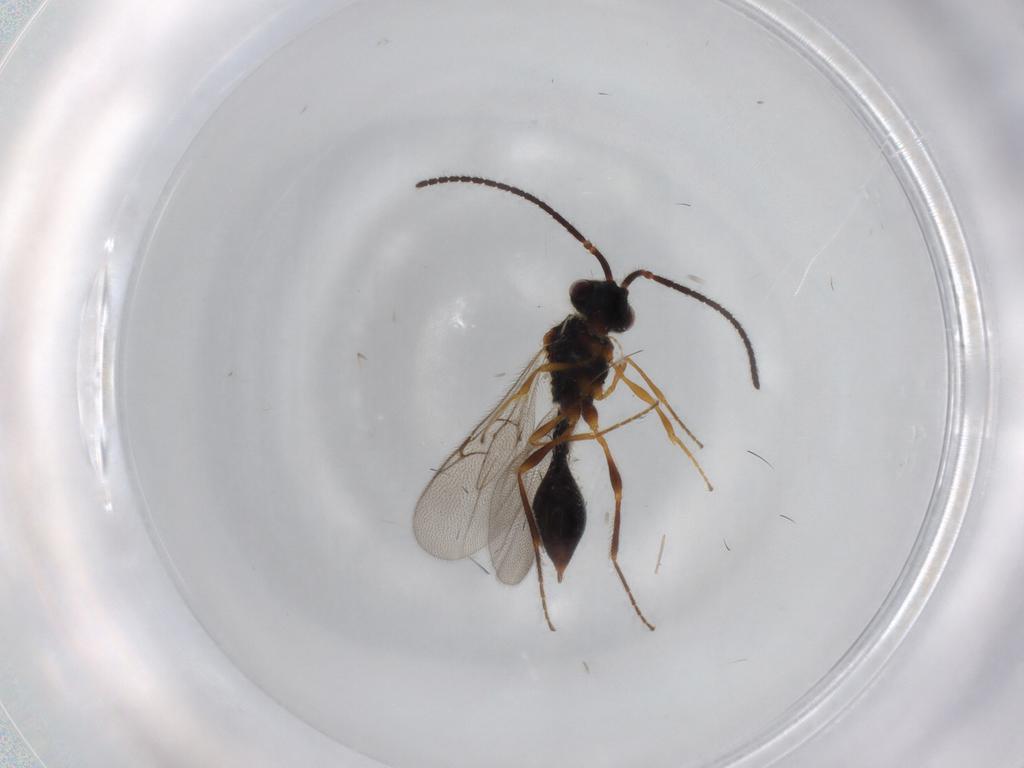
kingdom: Animalia
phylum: Arthropoda
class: Insecta
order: Hymenoptera
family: Diapriidae
